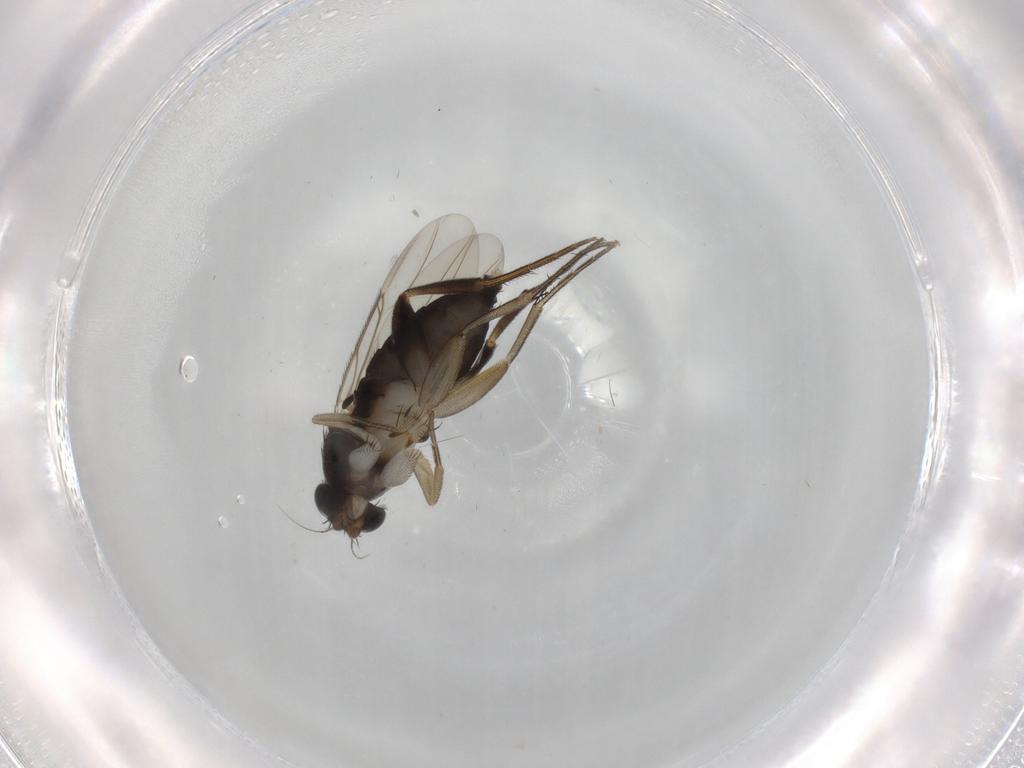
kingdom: Animalia
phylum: Arthropoda
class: Insecta
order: Diptera
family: Phoridae
